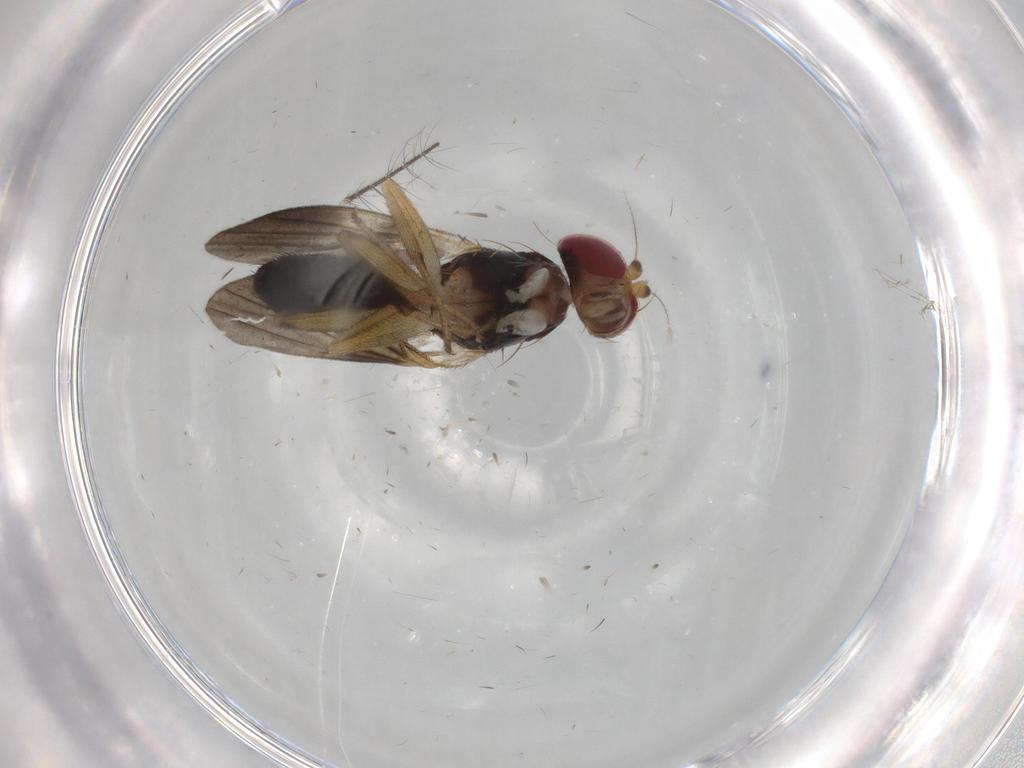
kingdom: Animalia
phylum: Arthropoda
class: Insecta
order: Diptera
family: Clusiidae
